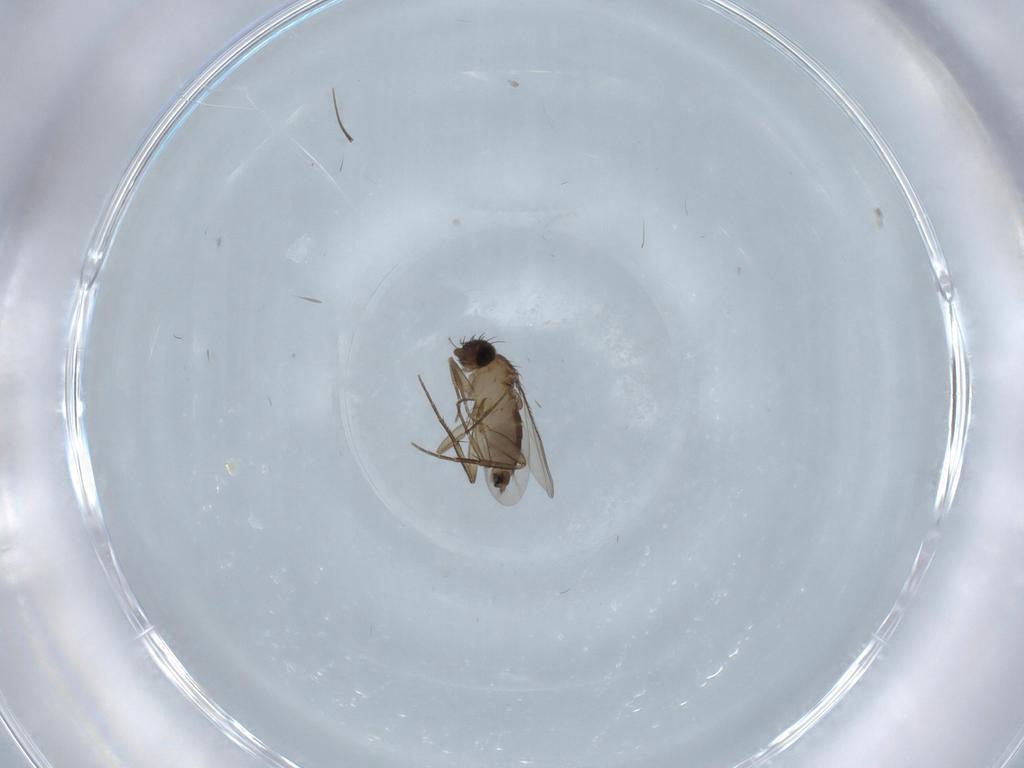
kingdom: Animalia
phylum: Arthropoda
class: Insecta
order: Diptera
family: Phoridae
